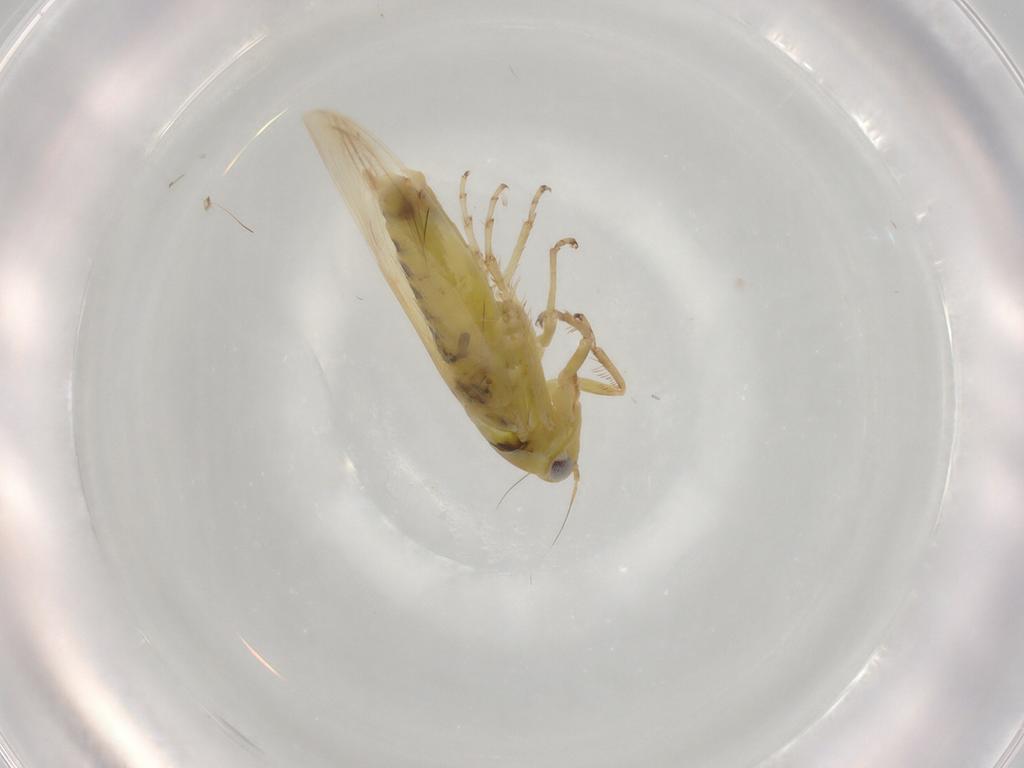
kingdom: Animalia
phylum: Arthropoda
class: Insecta
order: Hemiptera
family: Cicadellidae
